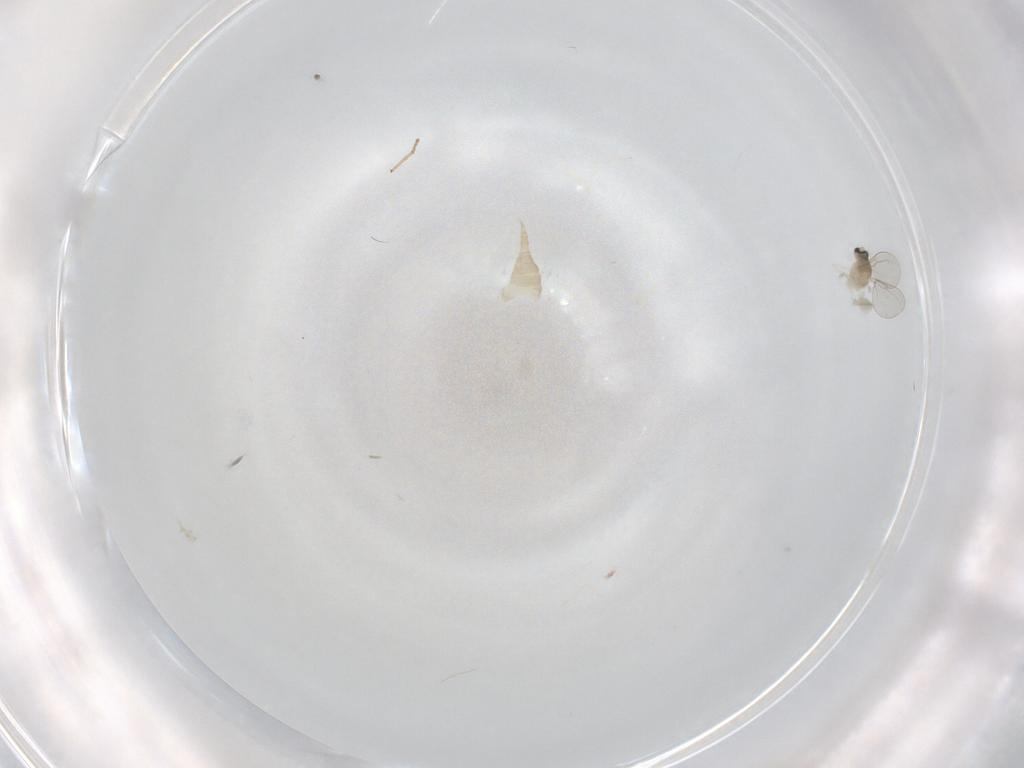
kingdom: Animalia
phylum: Arthropoda
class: Insecta
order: Diptera
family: Cecidomyiidae
